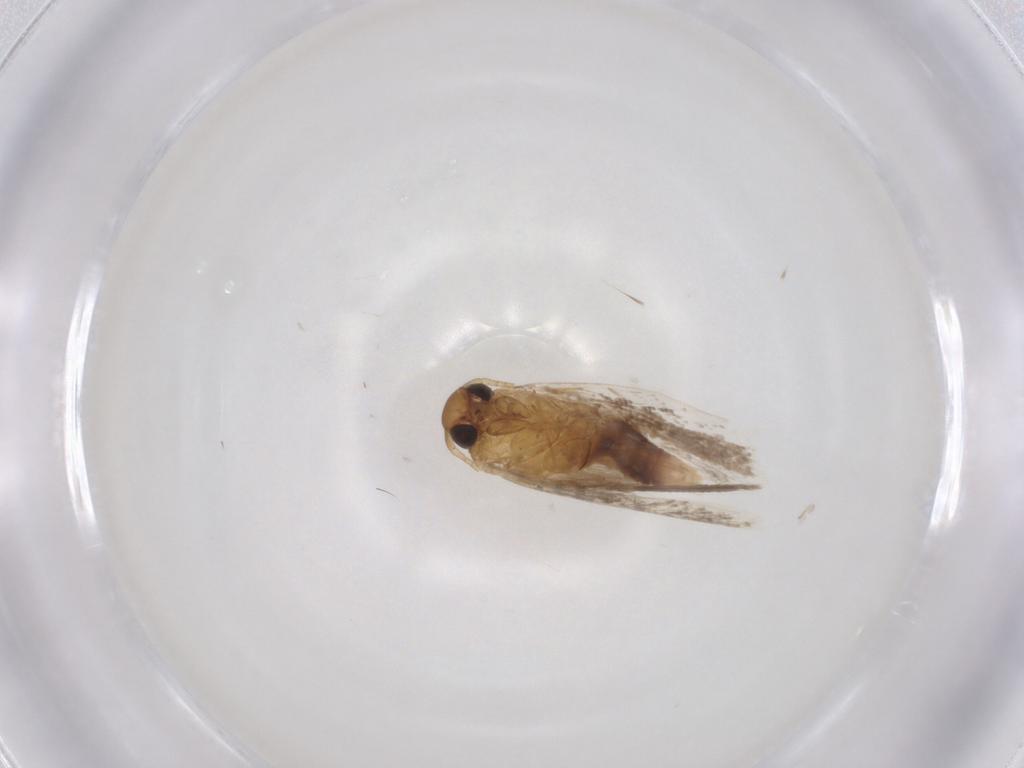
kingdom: Animalia
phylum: Arthropoda
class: Insecta
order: Lepidoptera
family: Gelechiidae
